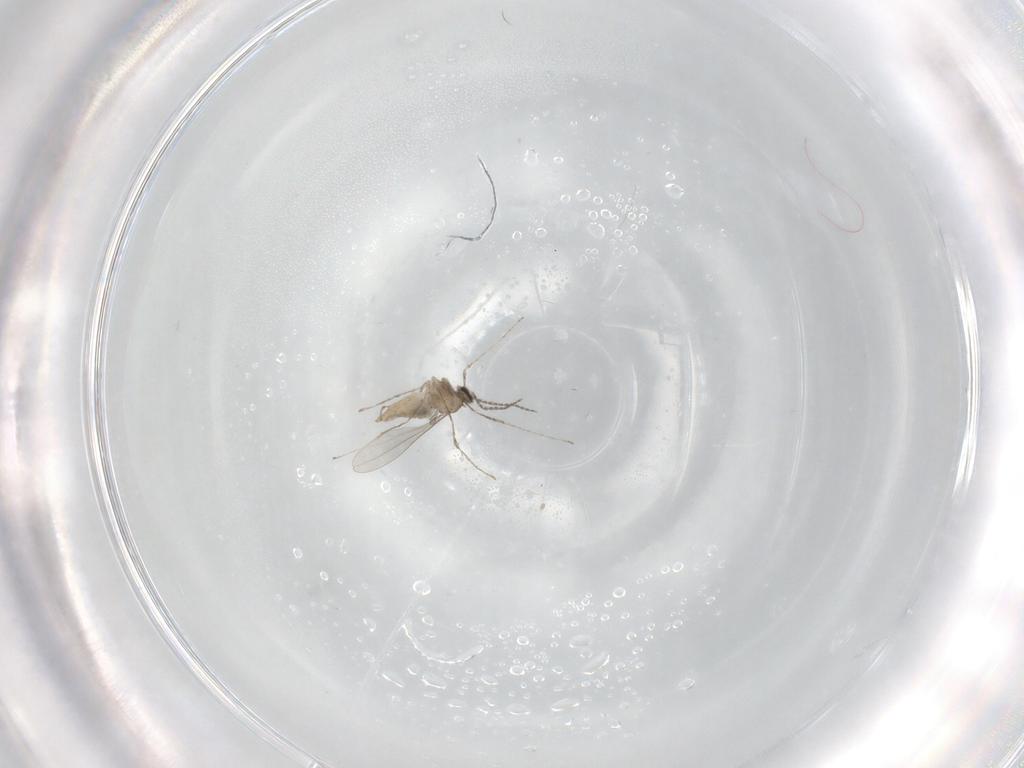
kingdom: Animalia
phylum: Arthropoda
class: Insecta
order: Diptera
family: Cecidomyiidae
